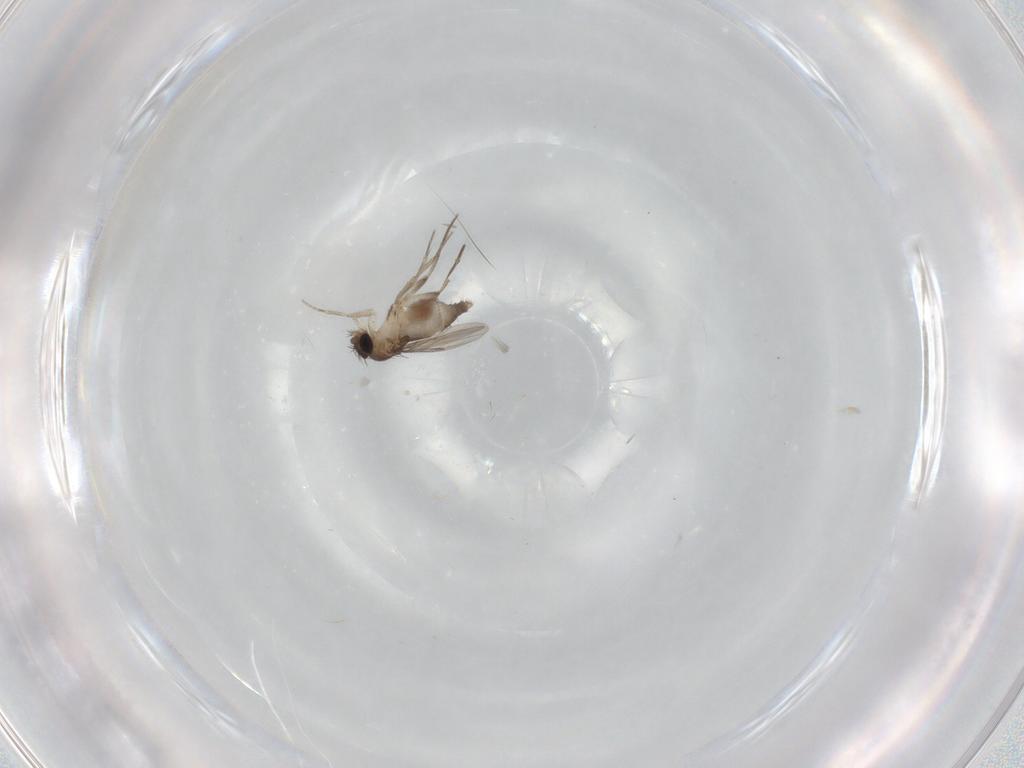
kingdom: Animalia
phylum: Arthropoda
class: Insecta
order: Diptera
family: Phoridae
